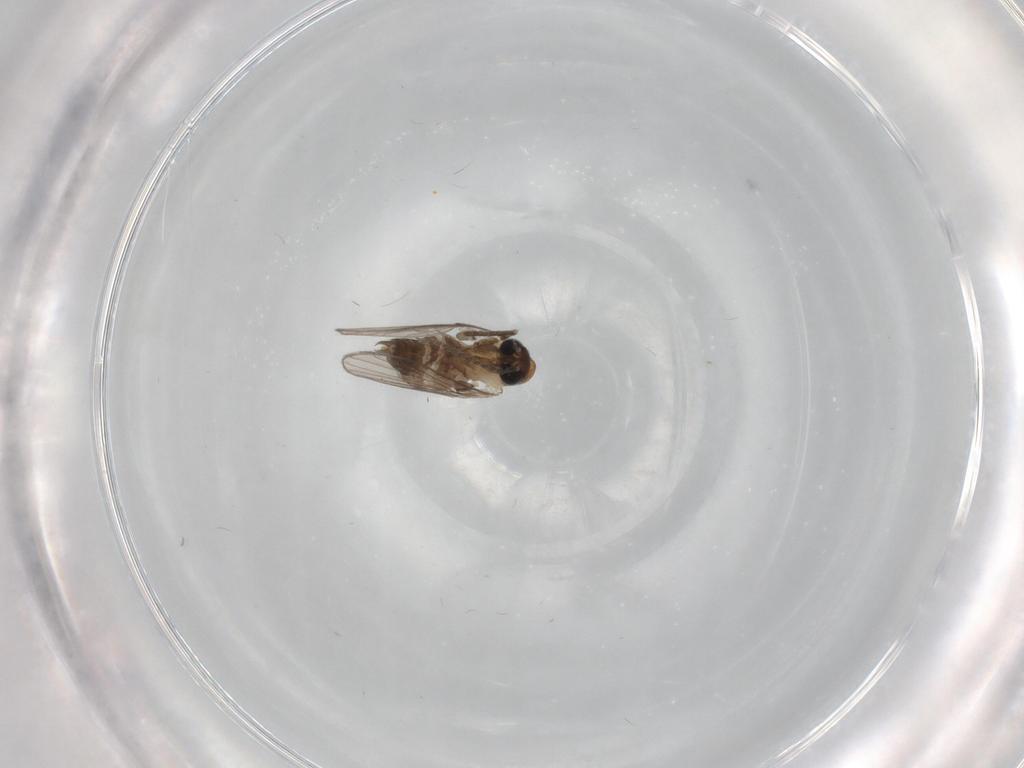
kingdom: Animalia
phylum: Arthropoda
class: Insecta
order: Diptera
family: Psychodidae
